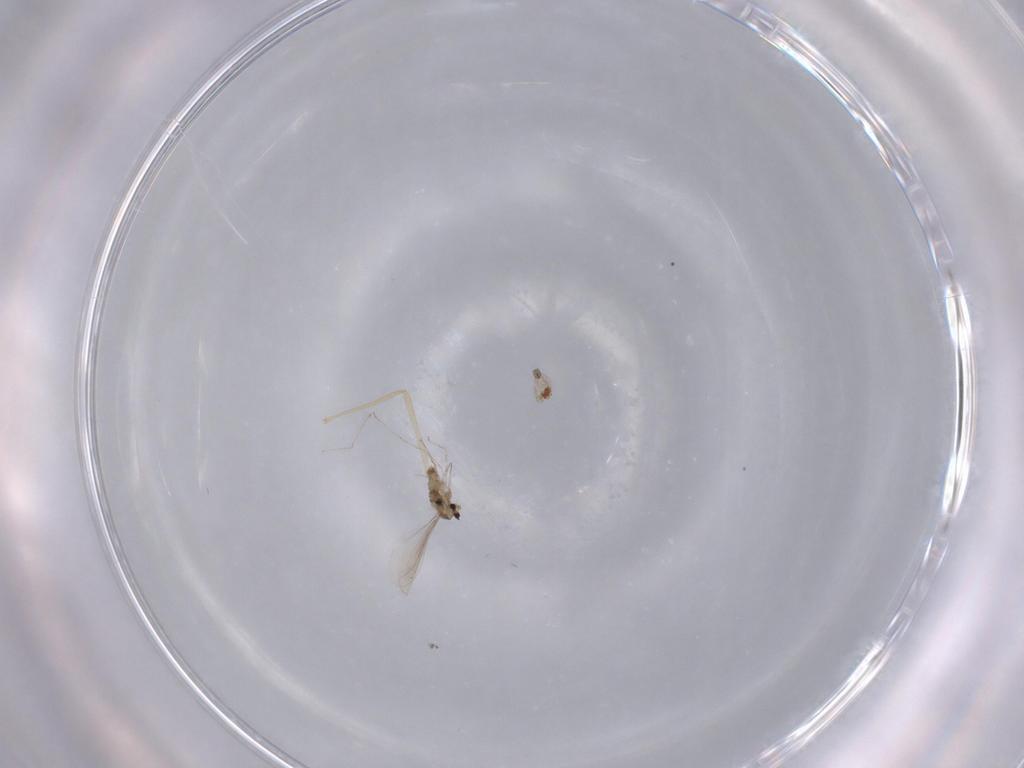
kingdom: Animalia
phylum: Arthropoda
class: Insecta
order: Diptera
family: Chironomidae
